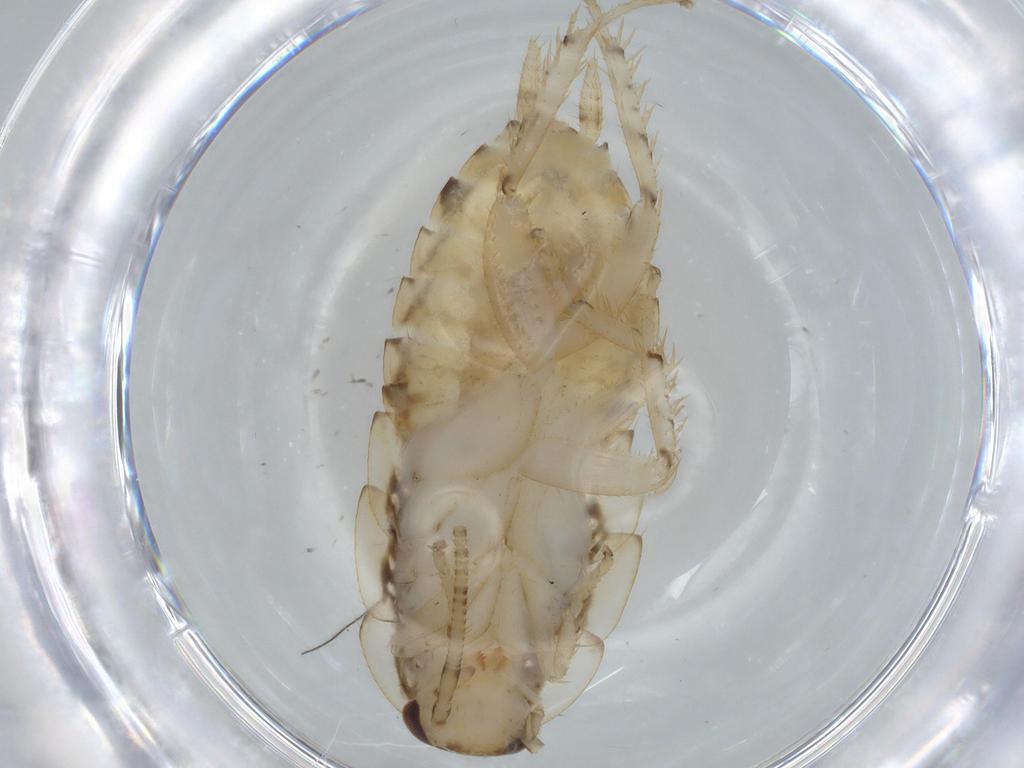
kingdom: Animalia
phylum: Arthropoda
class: Insecta
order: Blattodea
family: Ectobiidae
